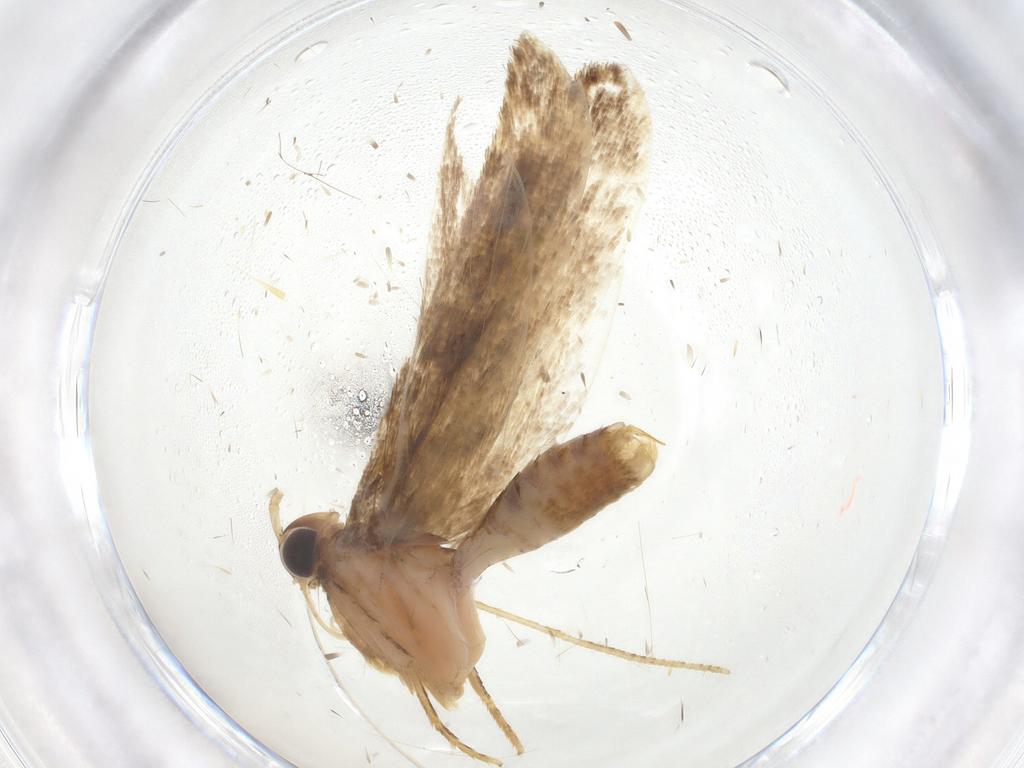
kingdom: Animalia
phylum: Arthropoda
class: Insecta
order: Lepidoptera
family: Gelechiidae
